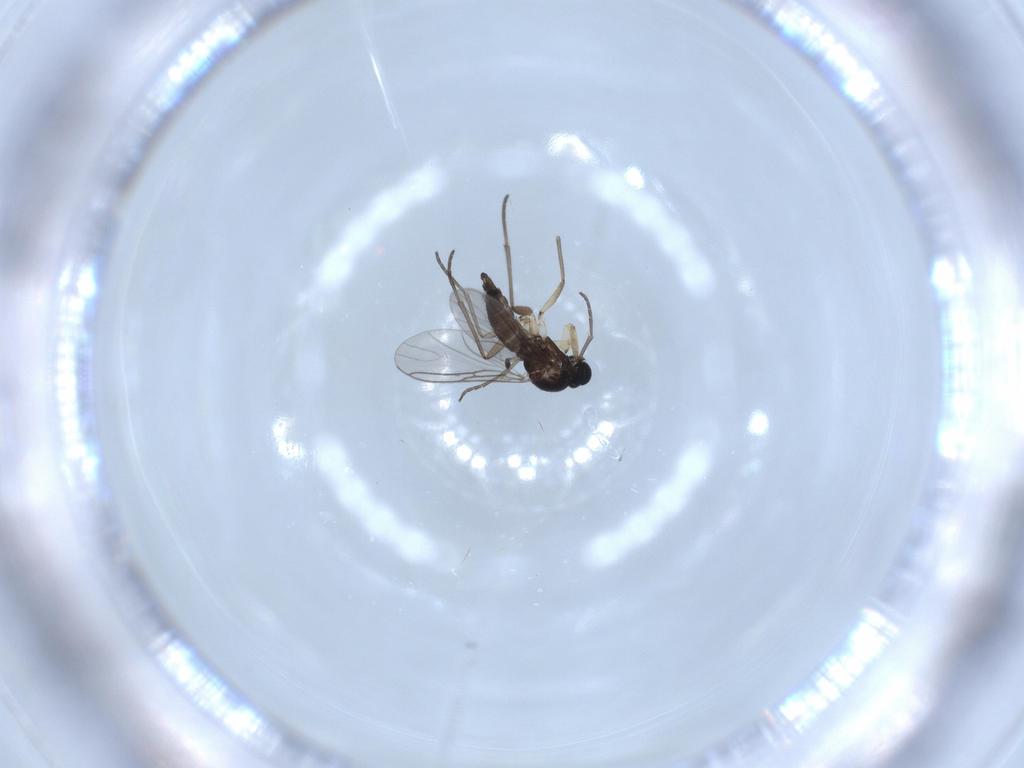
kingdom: Animalia
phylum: Arthropoda
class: Insecta
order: Diptera
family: Sciaridae
